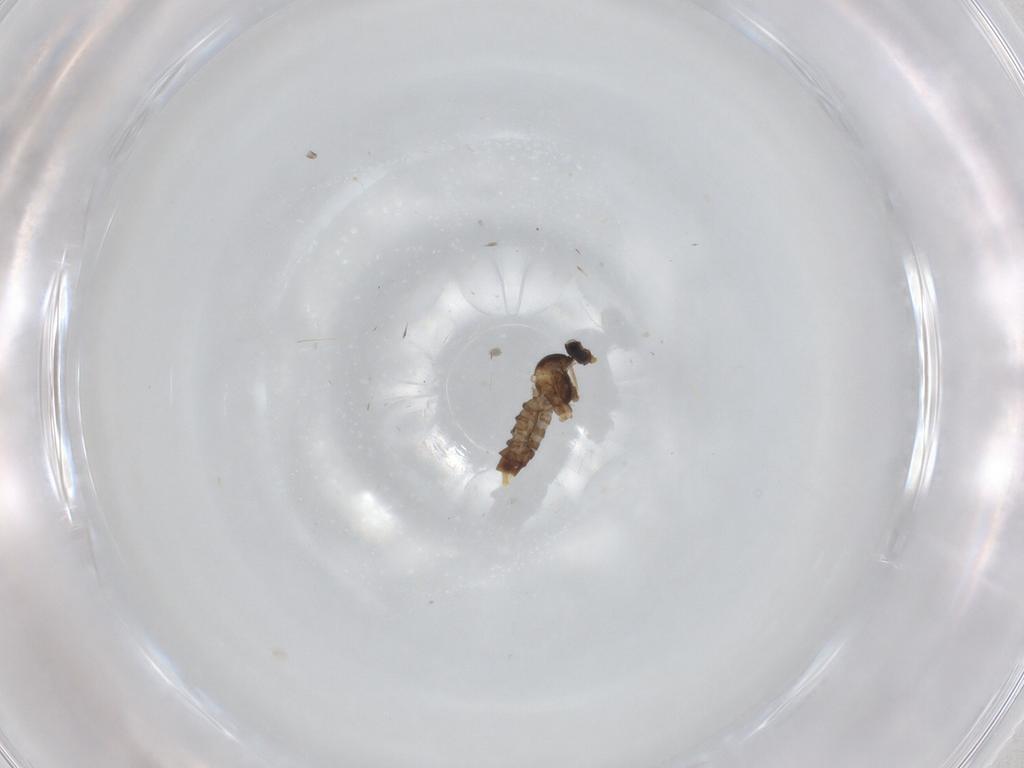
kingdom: Animalia
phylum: Arthropoda
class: Insecta
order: Diptera
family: Cecidomyiidae
